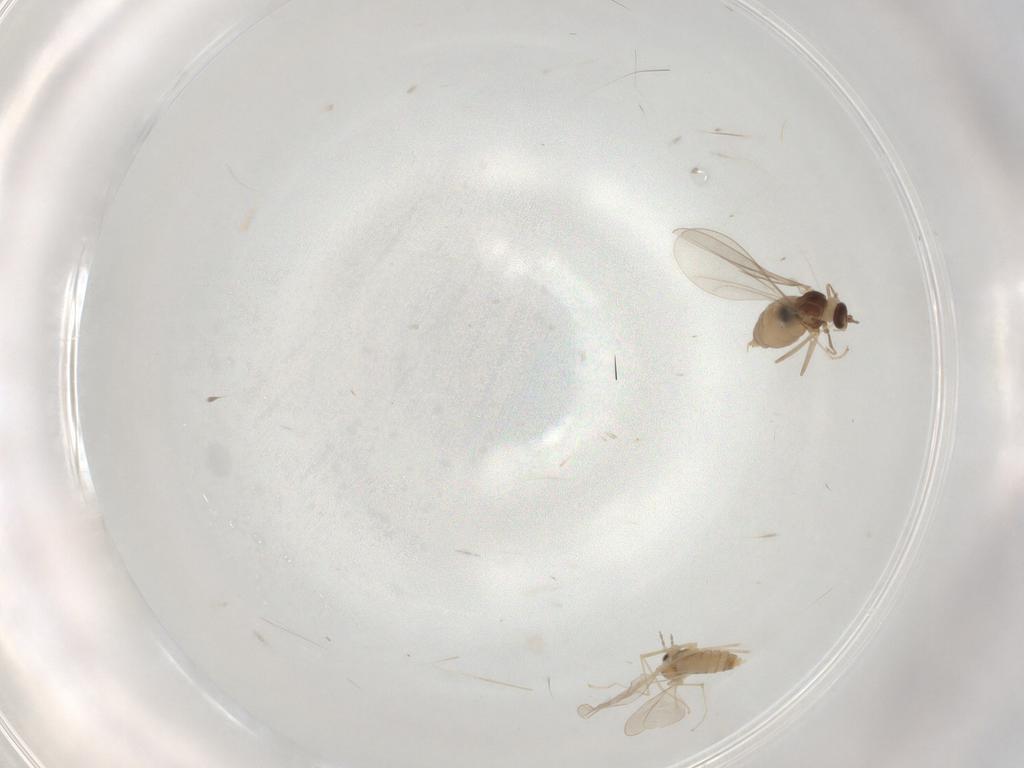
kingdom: Animalia
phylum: Arthropoda
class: Insecta
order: Diptera
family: Cecidomyiidae
